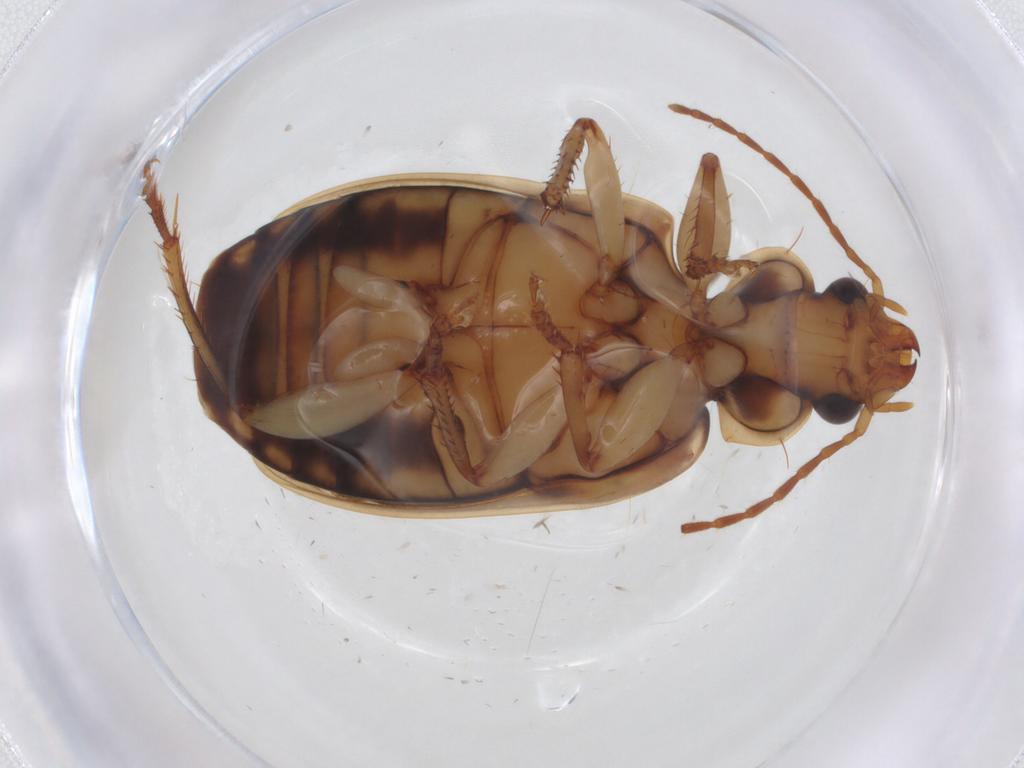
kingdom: Animalia
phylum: Arthropoda
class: Insecta
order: Coleoptera
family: Carabidae
